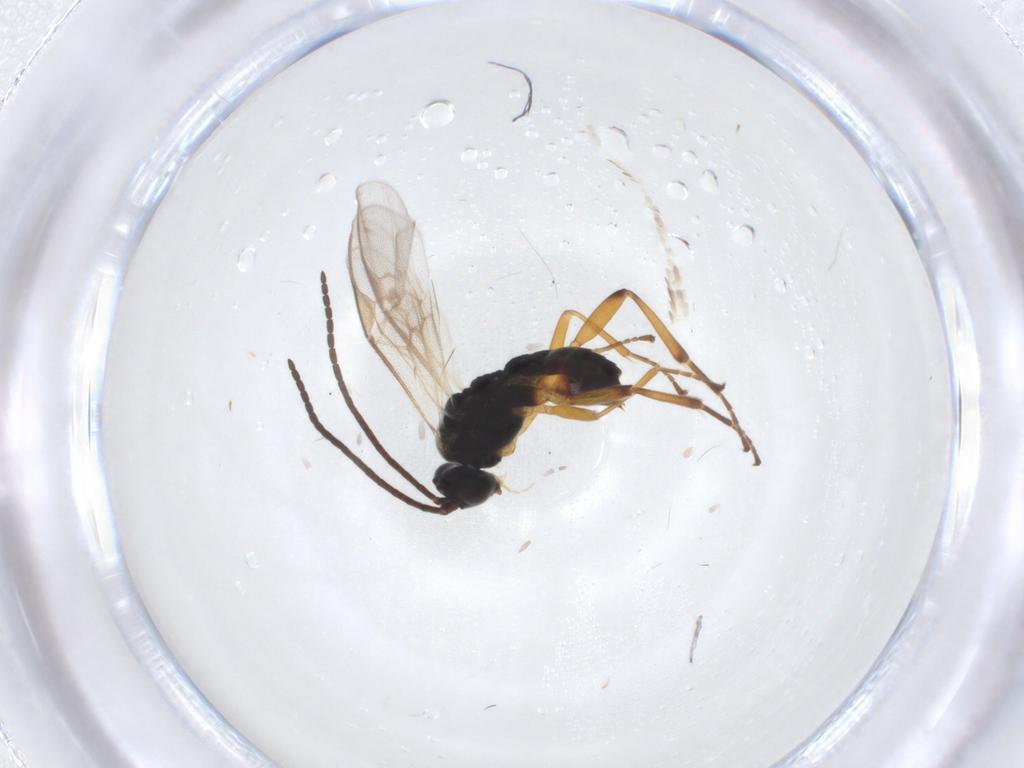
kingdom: Animalia
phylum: Arthropoda
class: Insecta
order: Hymenoptera
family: Braconidae
